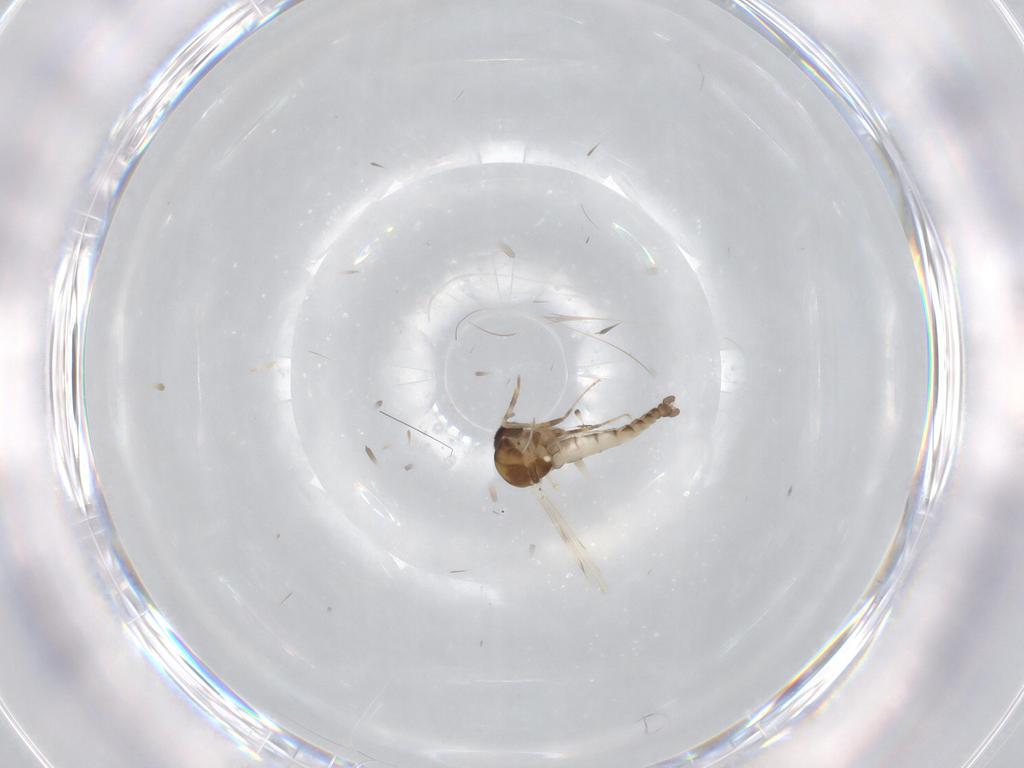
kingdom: Animalia
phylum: Arthropoda
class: Insecta
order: Diptera
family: Ceratopogonidae
